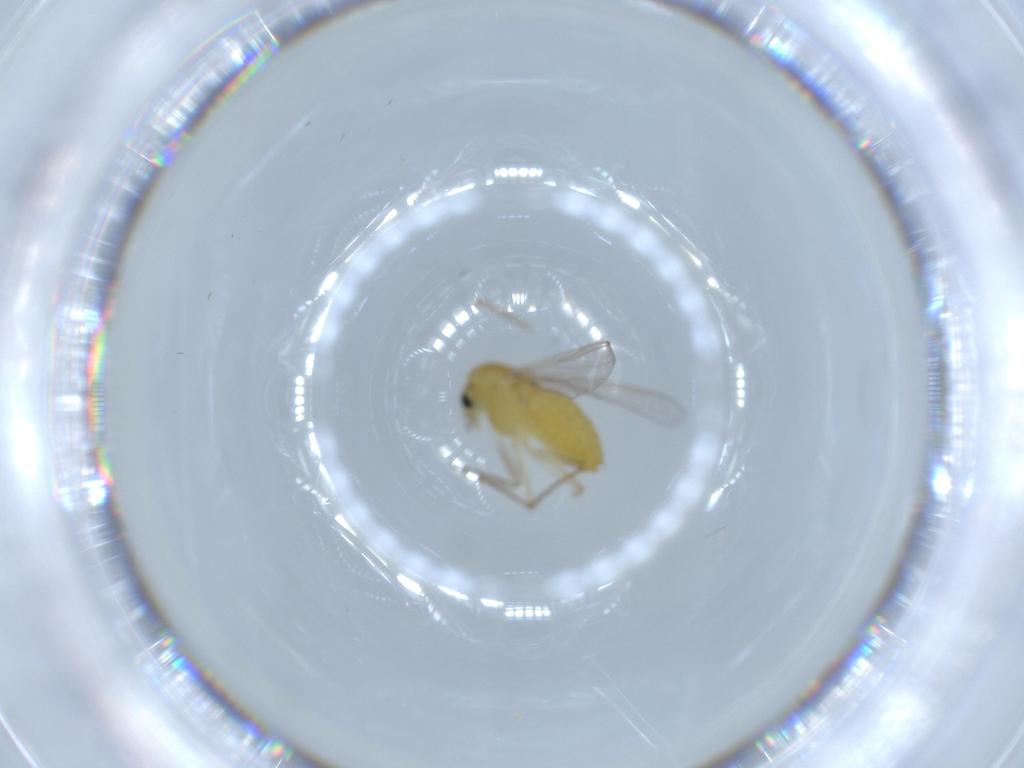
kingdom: Animalia
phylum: Arthropoda
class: Insecta
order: Diptera
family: Chironomidae
